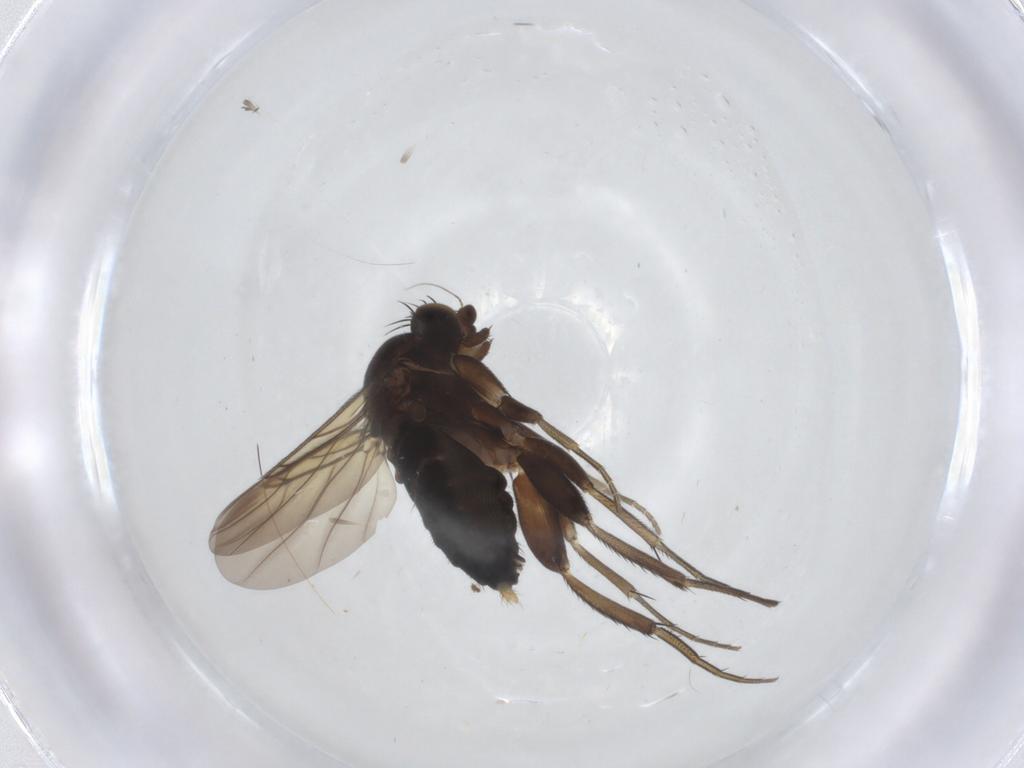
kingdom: Animalia
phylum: Arthropoda
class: Insecta
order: Diptera
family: Phoridae
